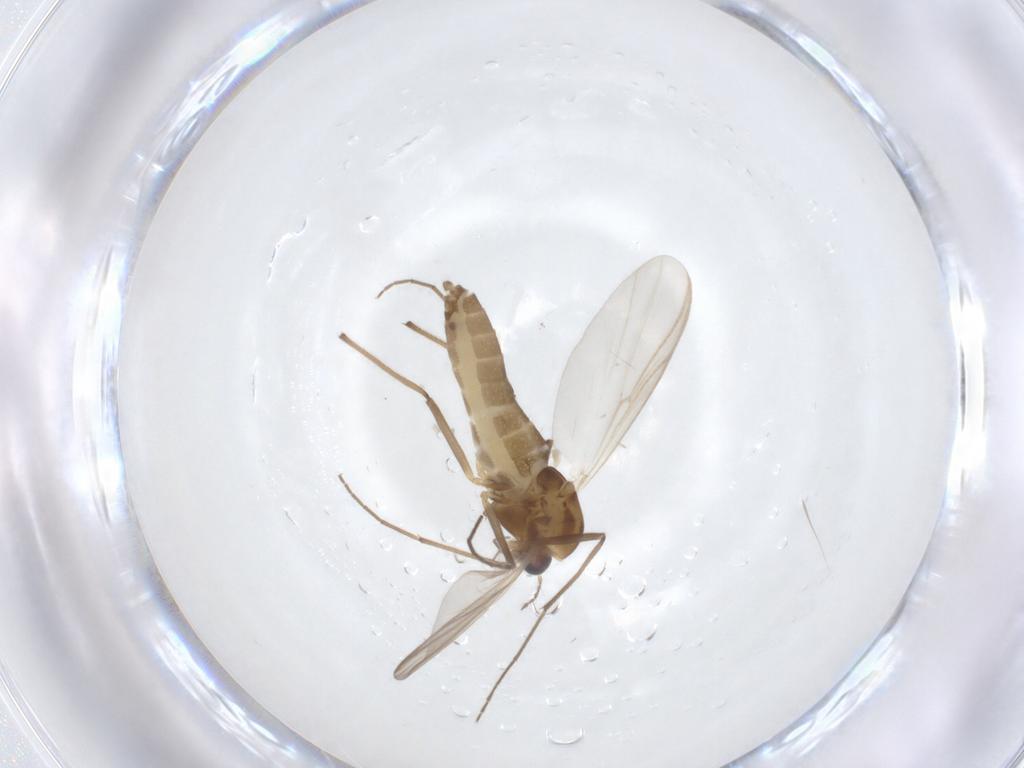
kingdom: Animalia
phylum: Arthropoda
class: Insecta
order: Diptera
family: Chironomidae
